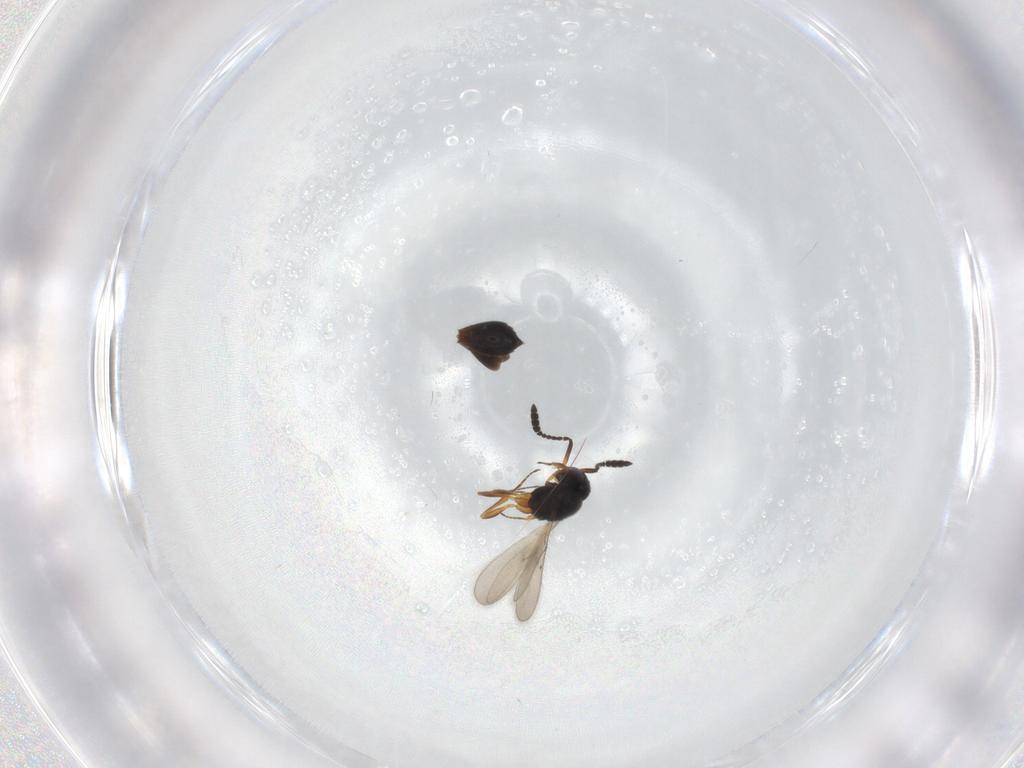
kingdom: Animalia
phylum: Arthropoda
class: Insecta
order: Hymenoptera
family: Scelionidae
